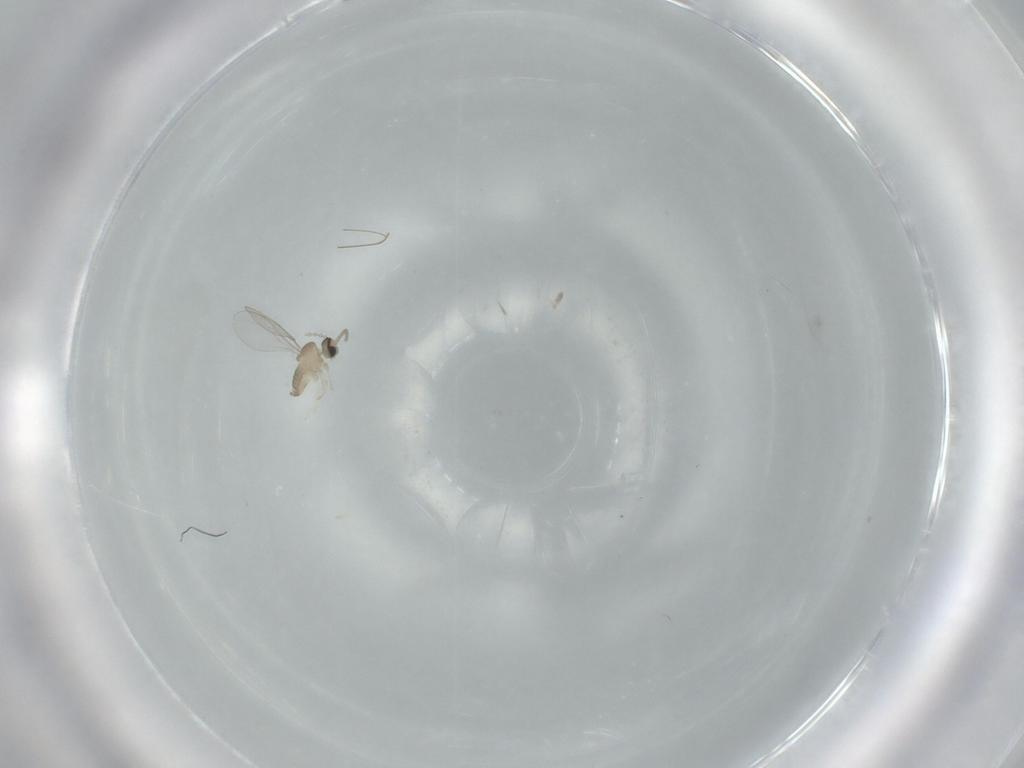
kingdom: Animalia
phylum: Arthropoda
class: Insecta
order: Diptera
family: Cecidomyiidae
